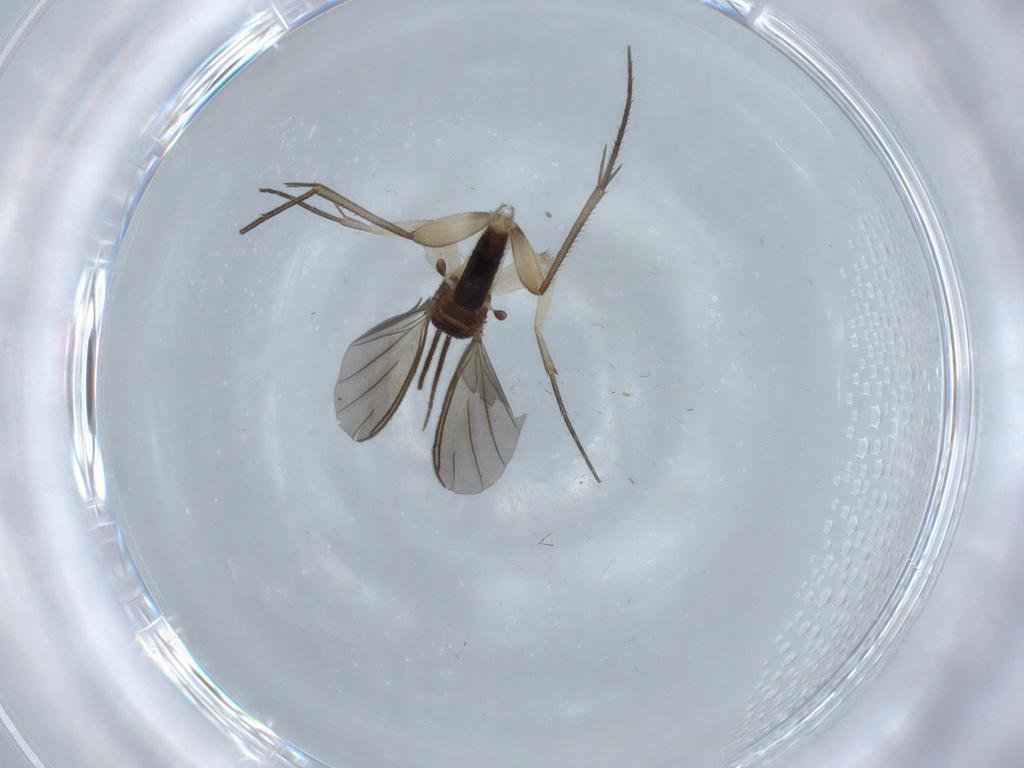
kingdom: Animalia
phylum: Arthropoda
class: Insecta
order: Diptera
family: Mycetophilidae
